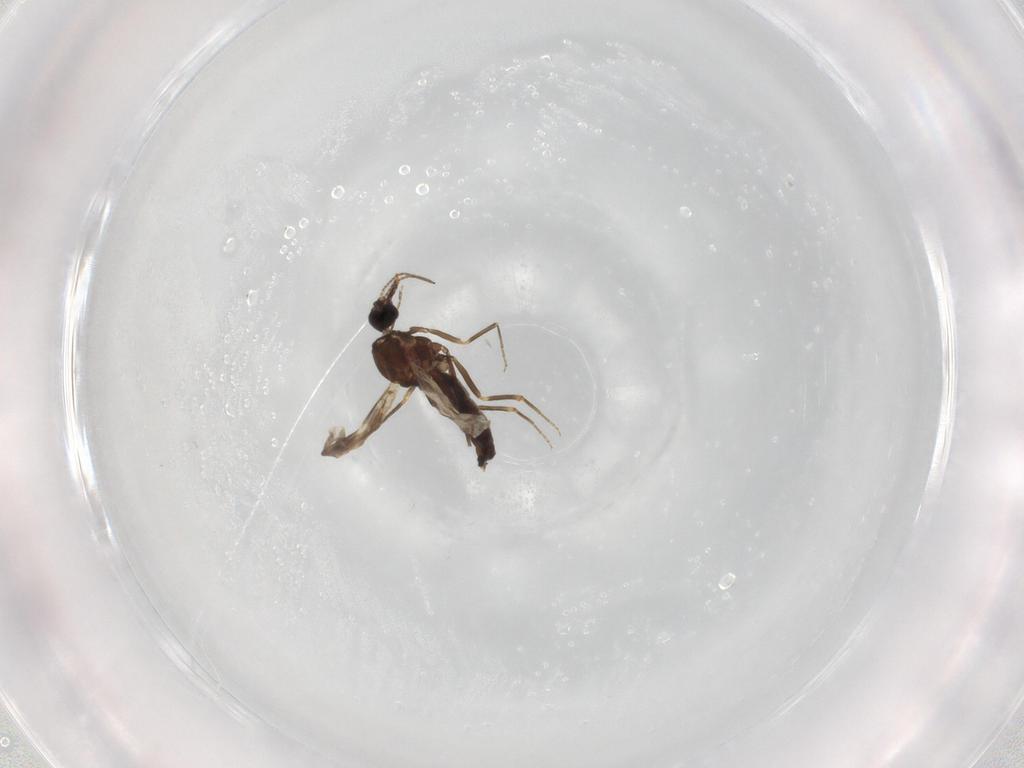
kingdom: Animalia
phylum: Arthropoda
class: Insecta
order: Diptera
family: Ceratopogonidae
